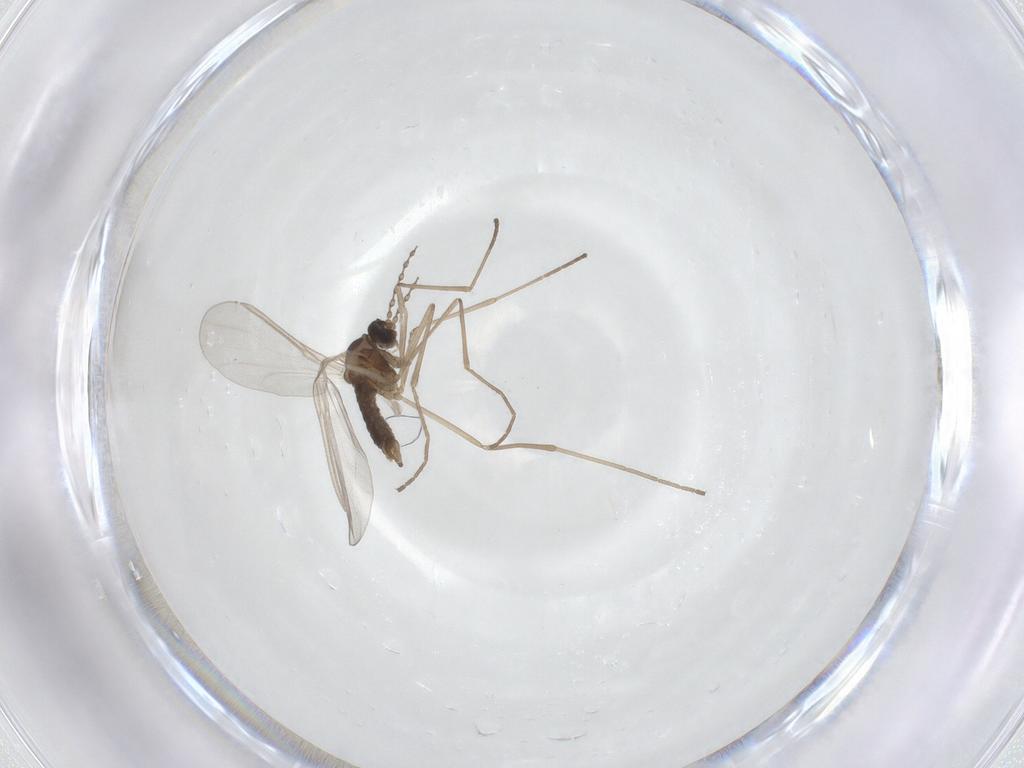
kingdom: Animalia
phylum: Arthropoda
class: Insecta
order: Diptera
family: Cecidomyiidae
